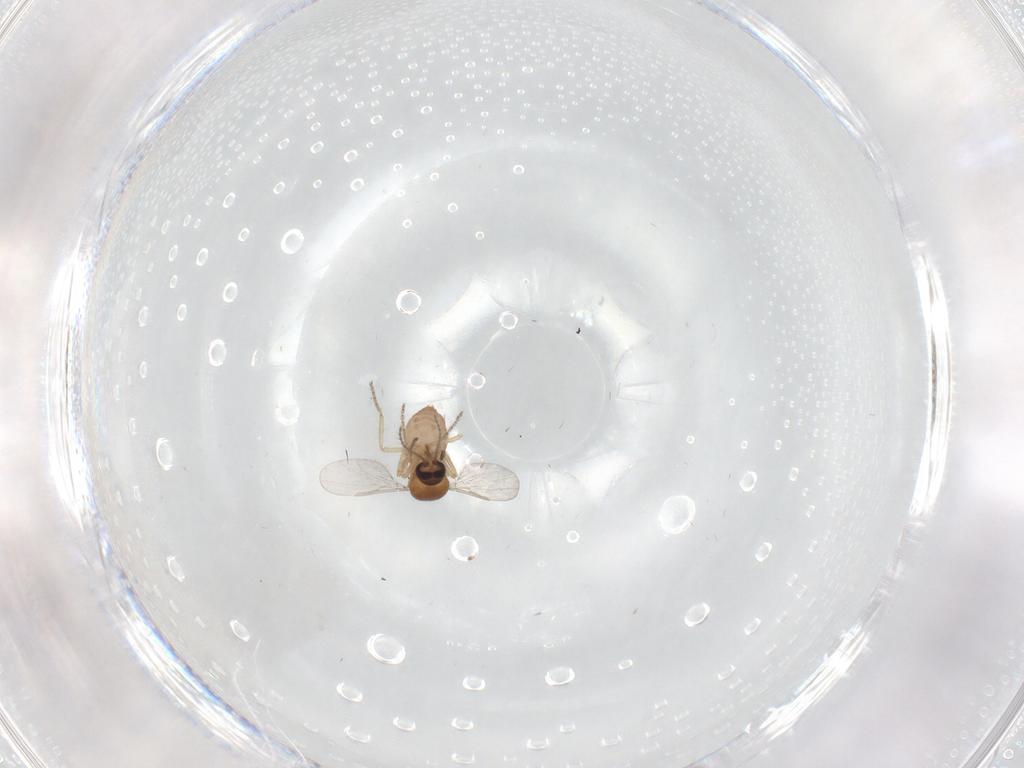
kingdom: Animalia
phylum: Arthropoda
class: Insecta
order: Diptera
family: Ceratopogonidae
